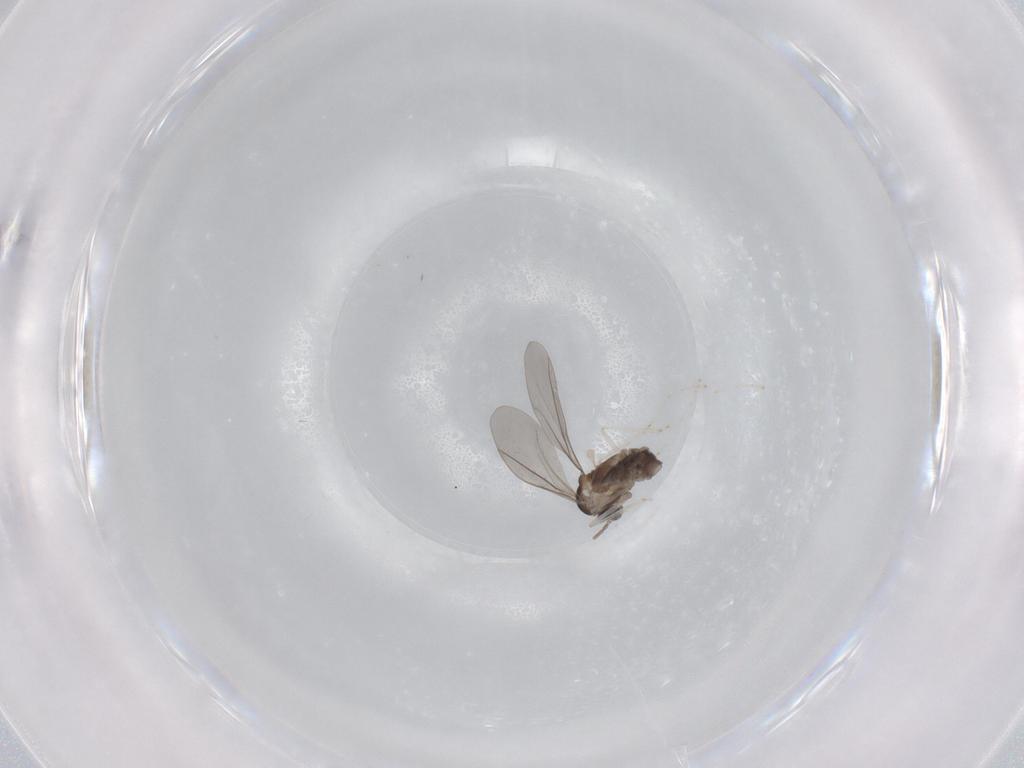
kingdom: Animalia
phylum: Arthropoda
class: Insecta
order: Diptera
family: Cecidomyiidae
